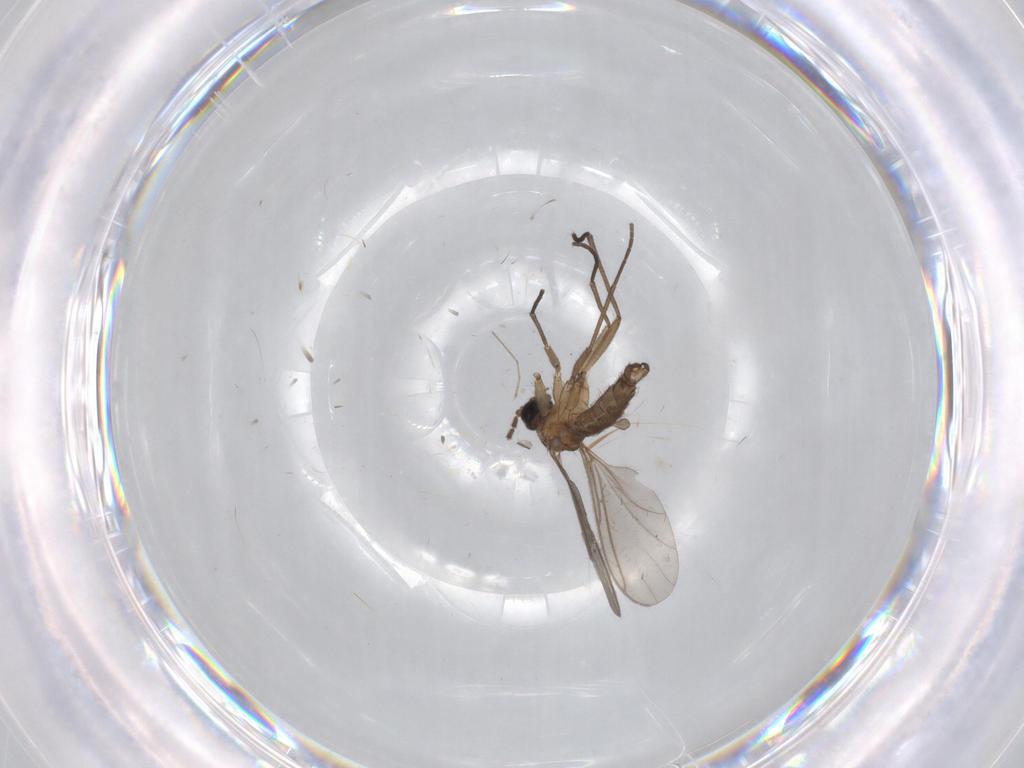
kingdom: Animalia
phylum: Arthropoda
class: Insecta
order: Diptera
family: Sciaridae
